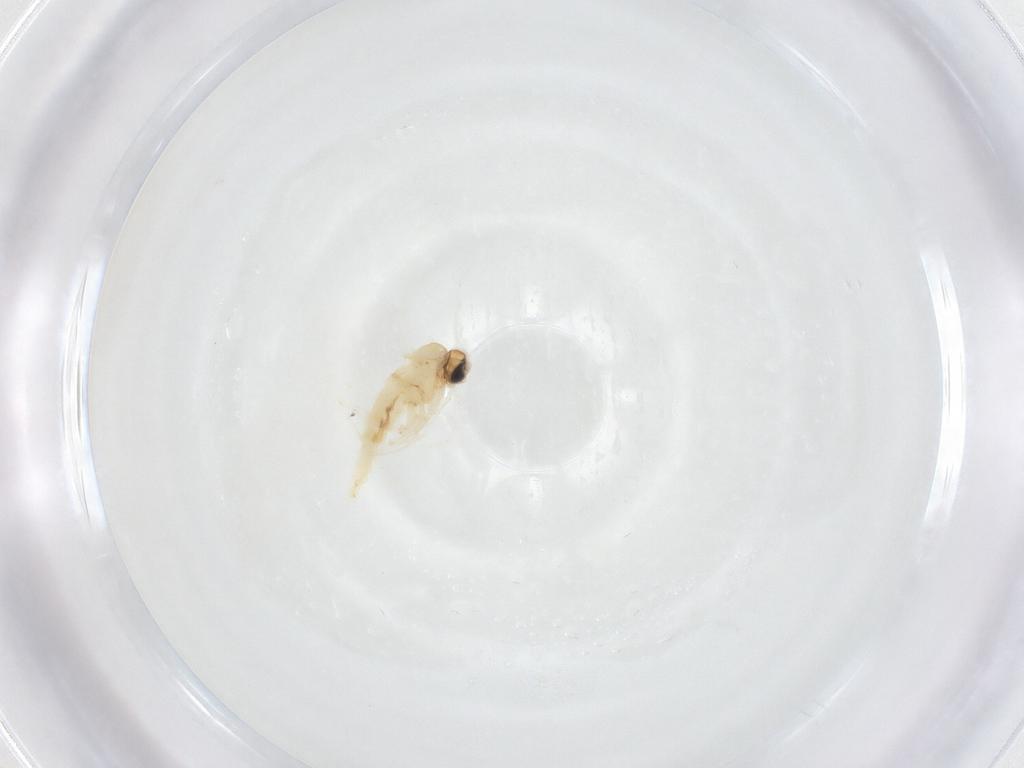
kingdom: Animalia
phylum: Arthropoda
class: Insecta
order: Diptera
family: Sciaridae
